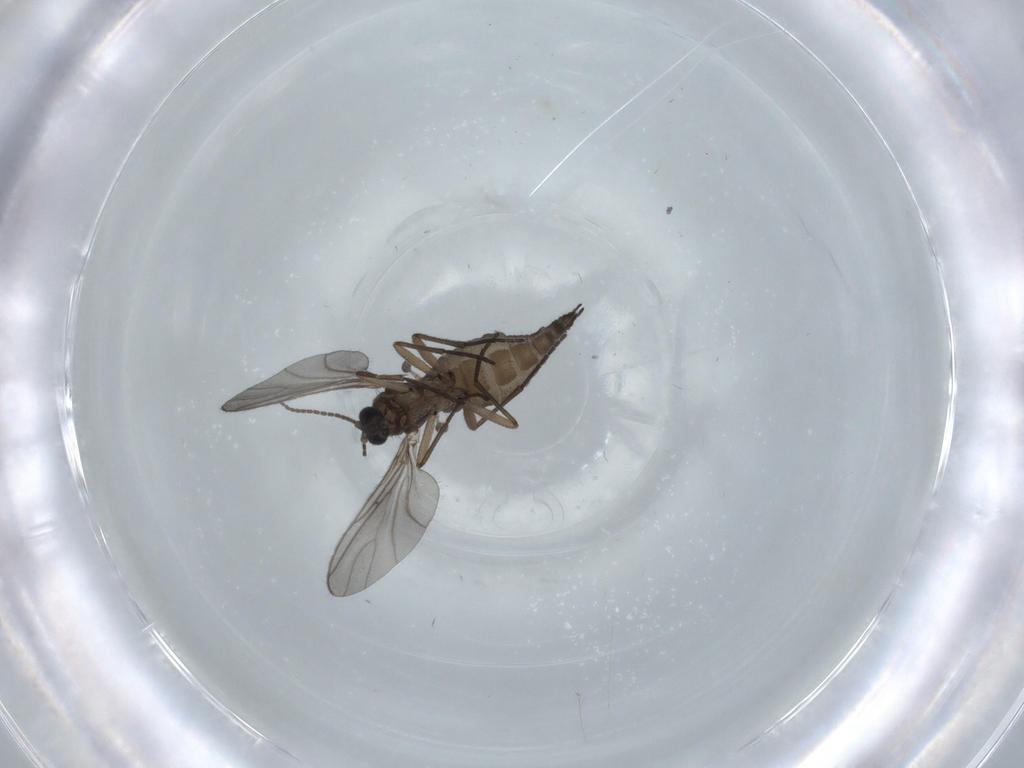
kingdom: Animalia
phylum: Arthropoda
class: Insecta
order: Diptera
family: Sciaridae
